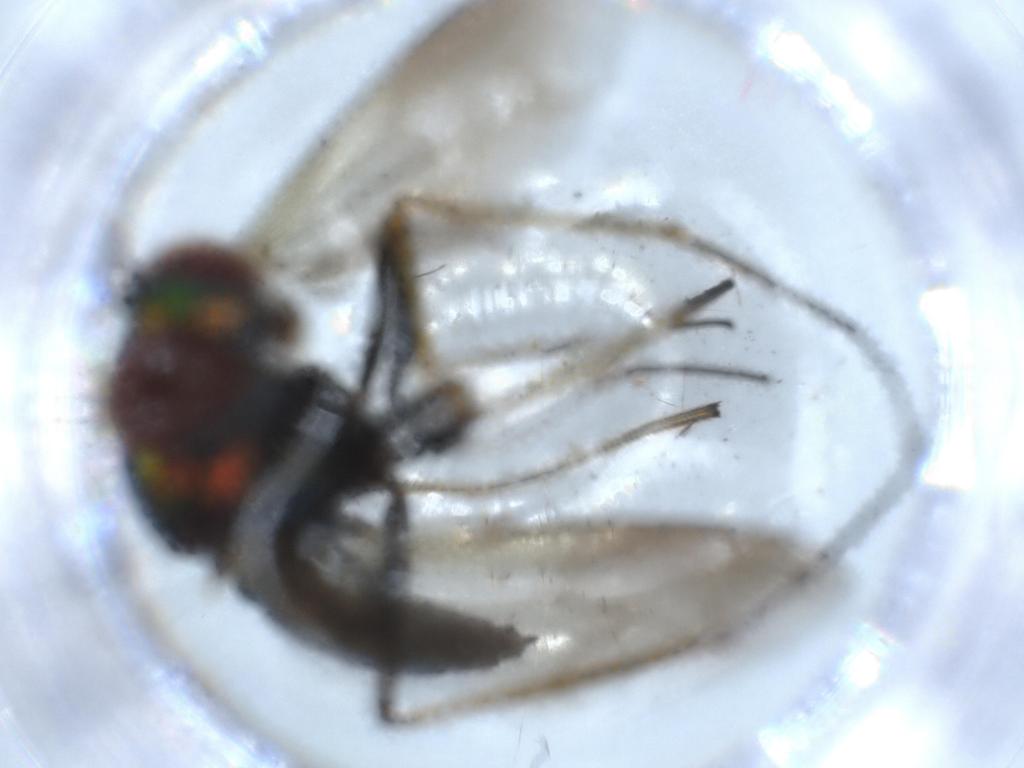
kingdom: Animalia
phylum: Arthropoda
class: Insecta
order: Diptera
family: Dolichopodidae
